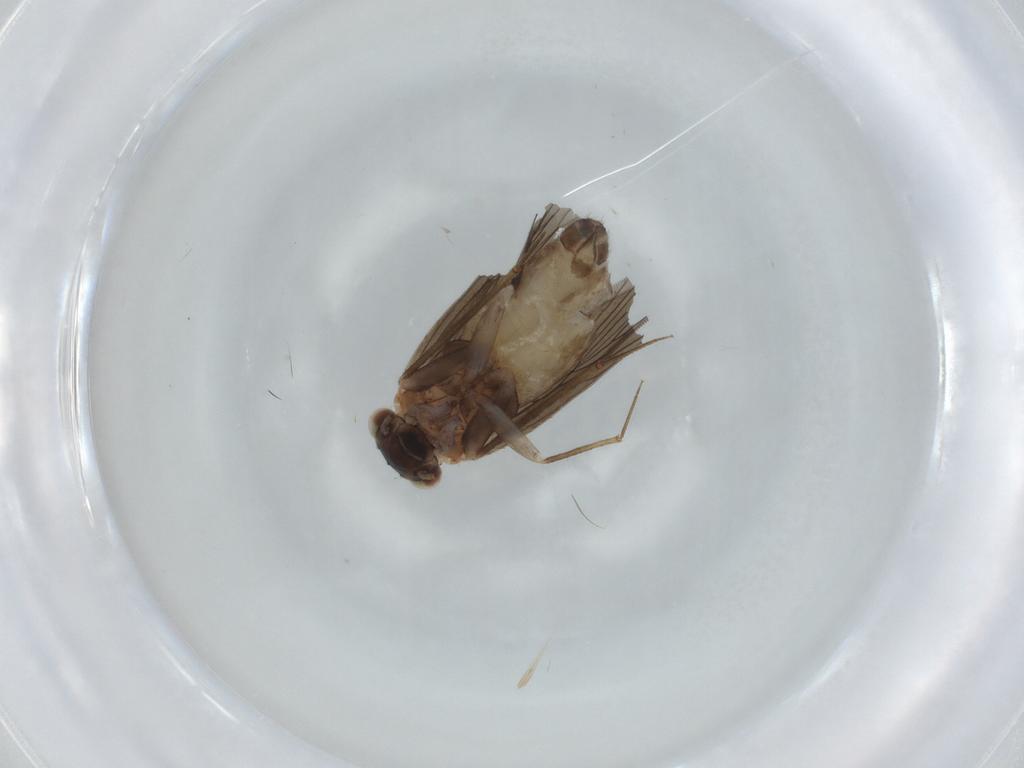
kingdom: Animalia
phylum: Arthropoda
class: Insecta
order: Psocodea
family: Lepidopsocidae
